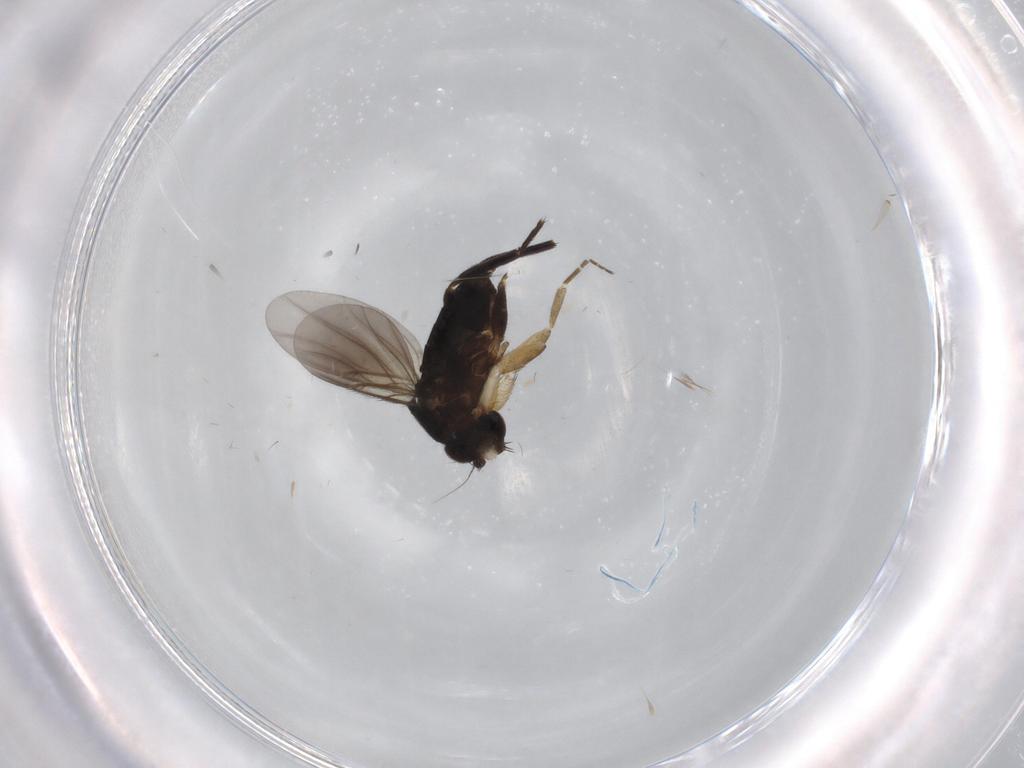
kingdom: Animalia
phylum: Arthropoda
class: Insecta
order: Diptera
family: Phoridae
